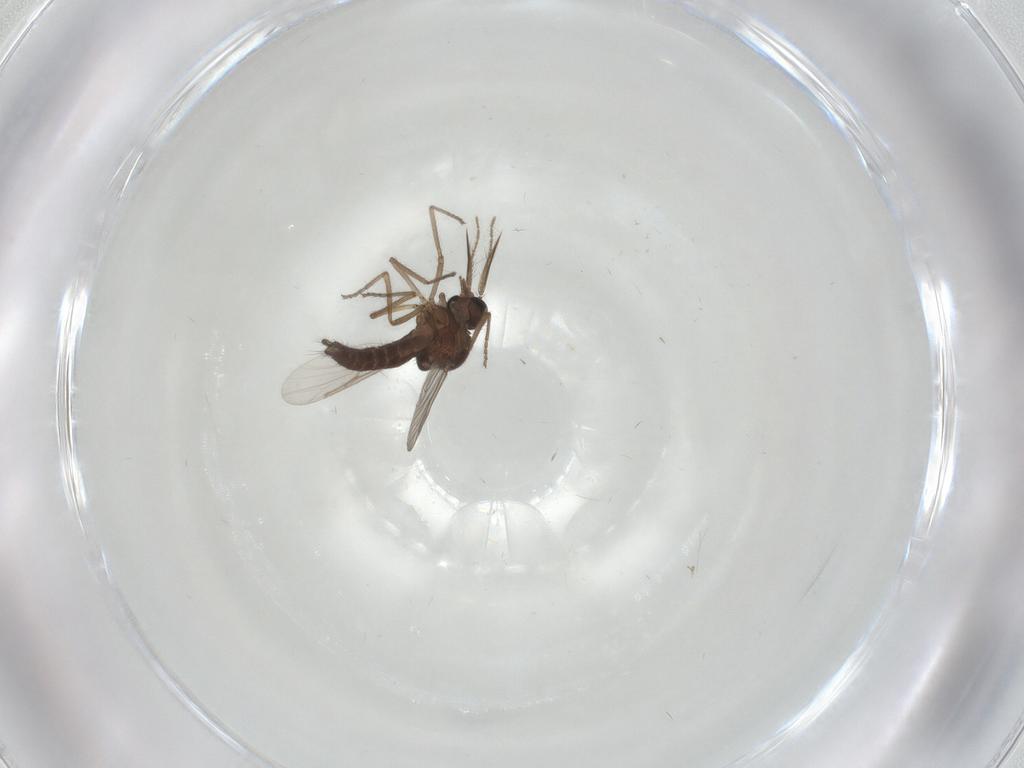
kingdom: Animalia
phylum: Arthropoda
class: Insecta
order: Diptera
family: Ceratopogonidae
